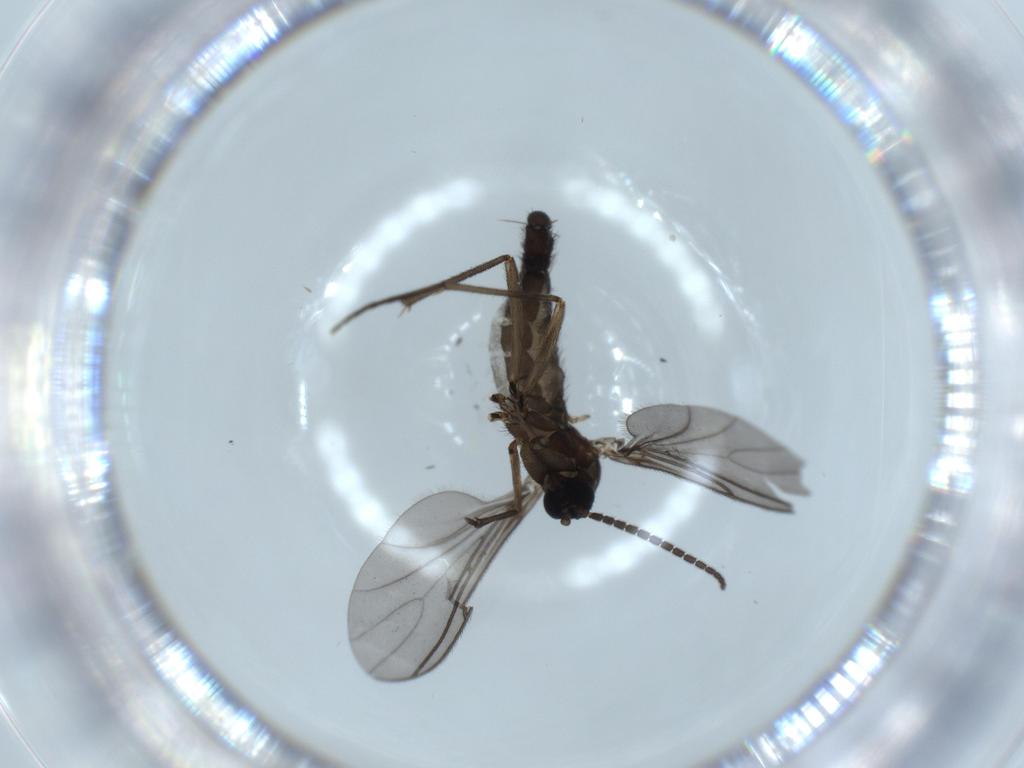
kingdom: Animalia
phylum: Arthropoda
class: Insecta
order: Diptera
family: Sciaridae
